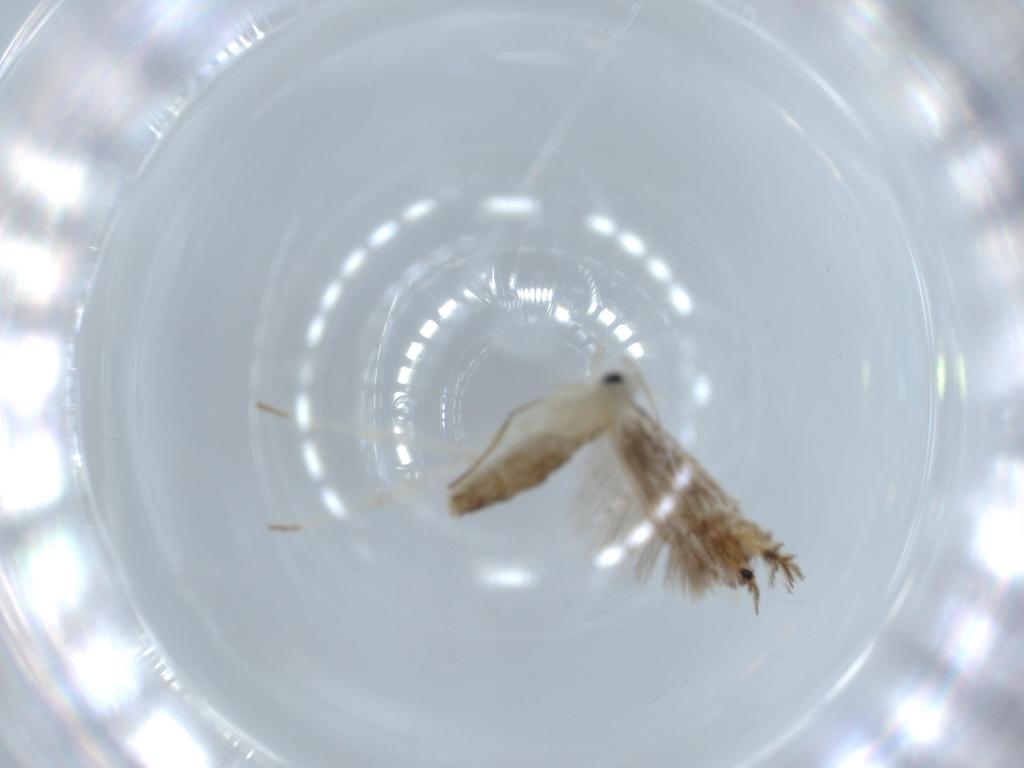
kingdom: Animalia
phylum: Arthropoda
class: Insecta
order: Lepidoptera
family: Nepticulidae
